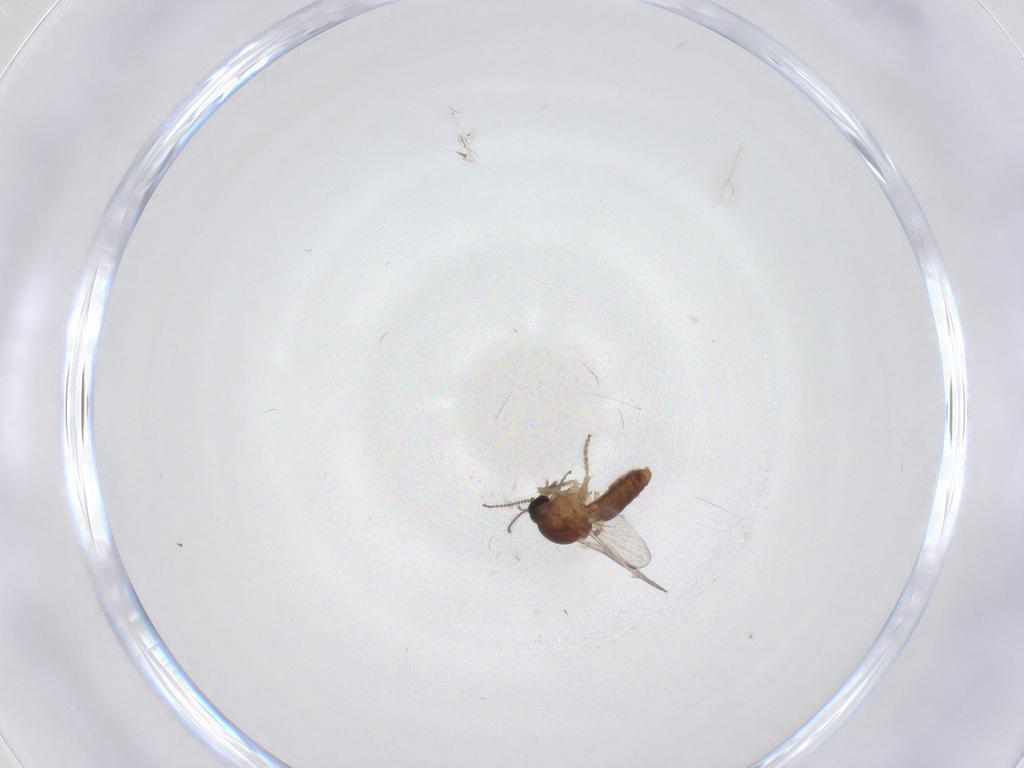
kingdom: Animalia
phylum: Arthropoda
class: Insecta
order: Diptera
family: Ceratopogonidae
